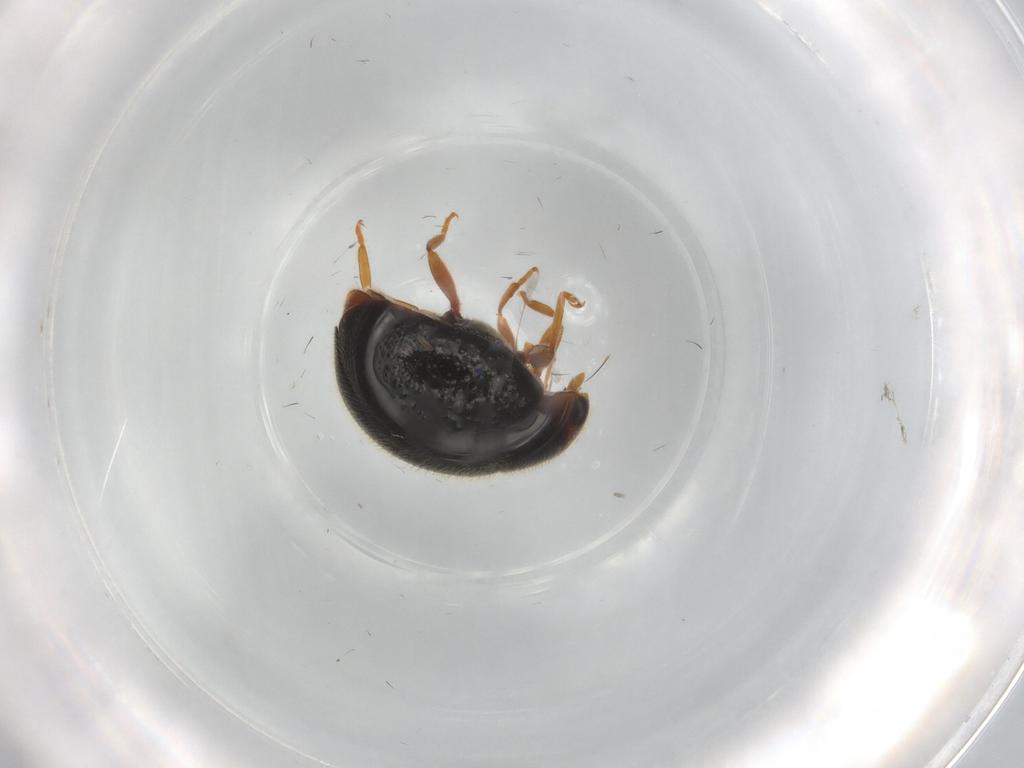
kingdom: Animalia
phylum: Arthropoda
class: Insecta
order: Coleoptera
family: Coccinellidae
